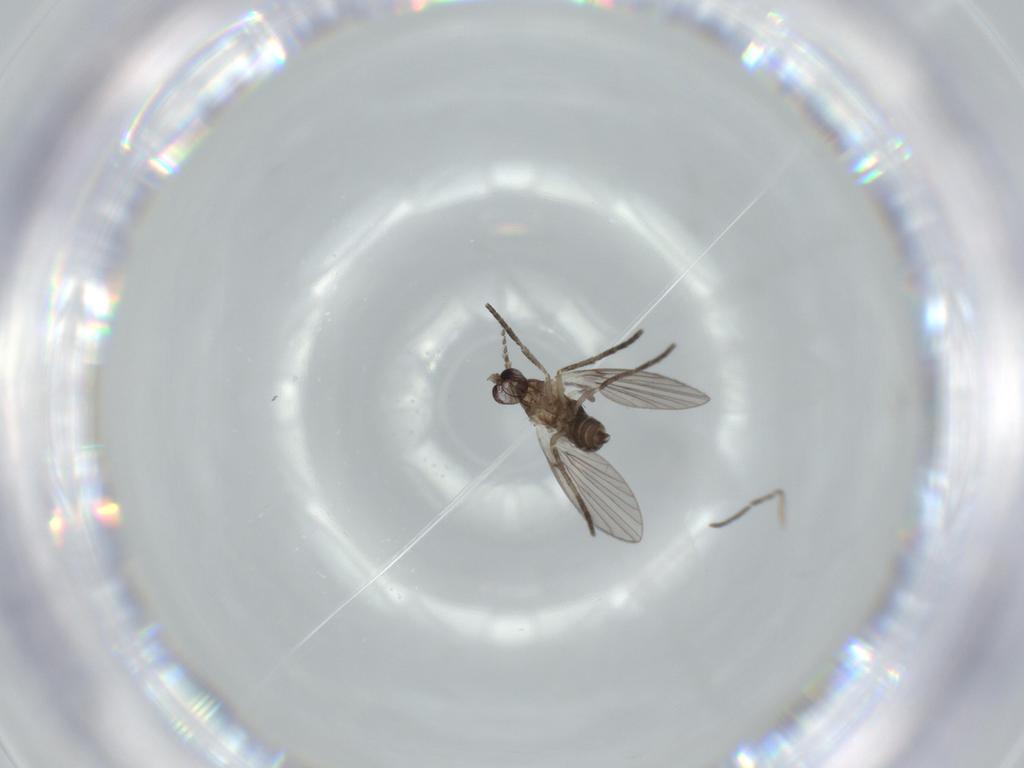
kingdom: Animalia
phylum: Arthropoda
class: Insecta
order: Diptera
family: Psychodidae
